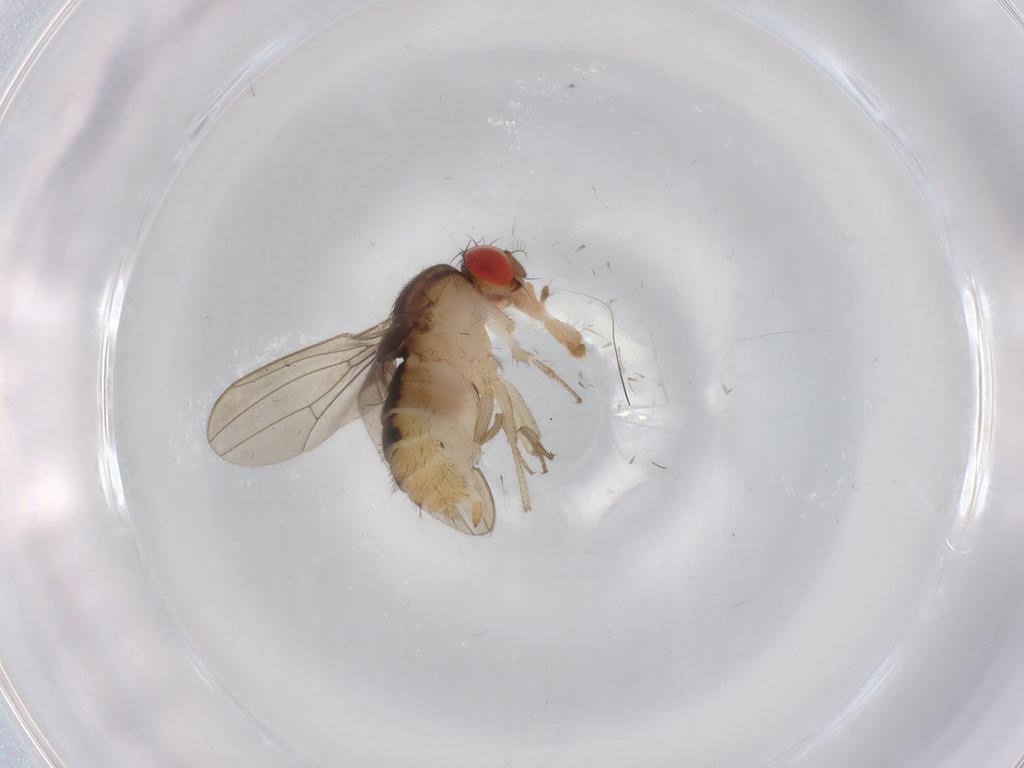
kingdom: Animalia
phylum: Arthropoda
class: Insecta
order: Diptera
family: Drosophilidae
